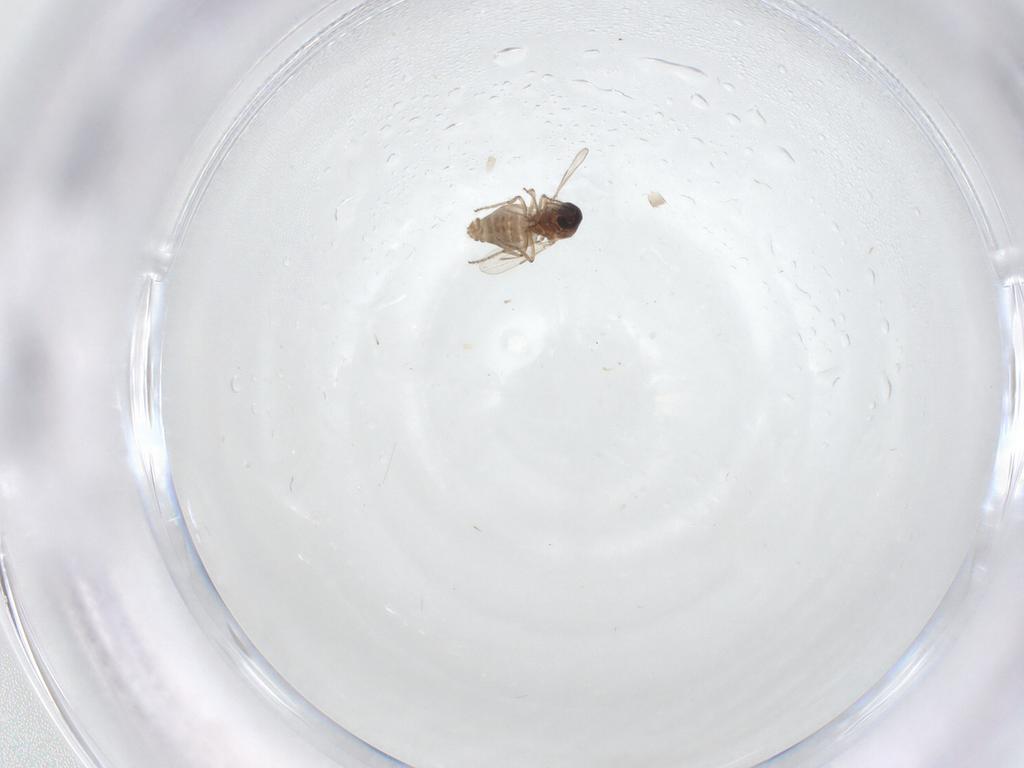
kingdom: Animalia
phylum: Arthropoda
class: Insecta
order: Diptera
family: Ceratopogonidae
